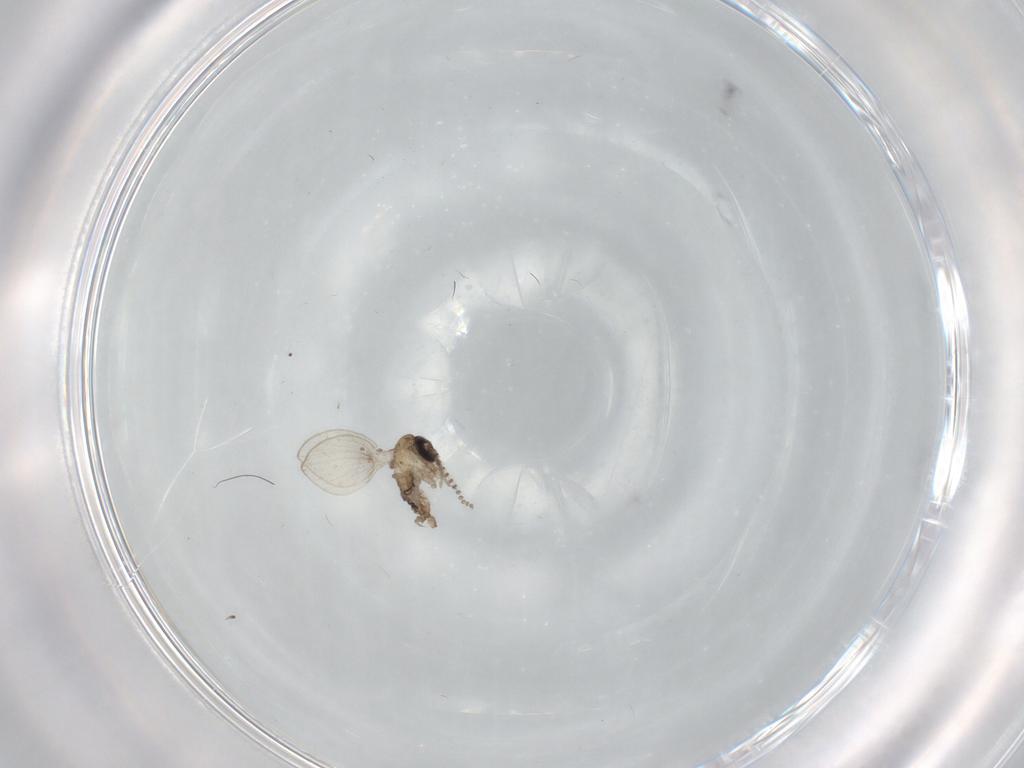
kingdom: Animalia
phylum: Arthropoda
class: Insecta
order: Diptera
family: Psychodidae
